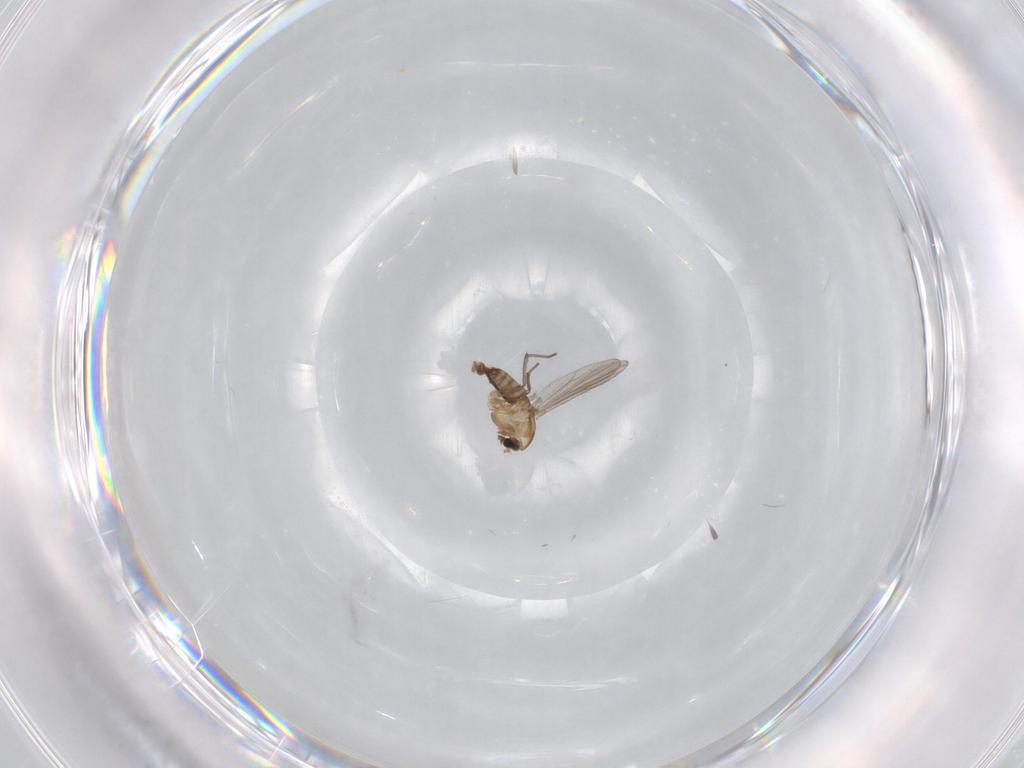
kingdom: Animalia
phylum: Arthropoda
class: Insecta
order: Diptera
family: Chironomidae
